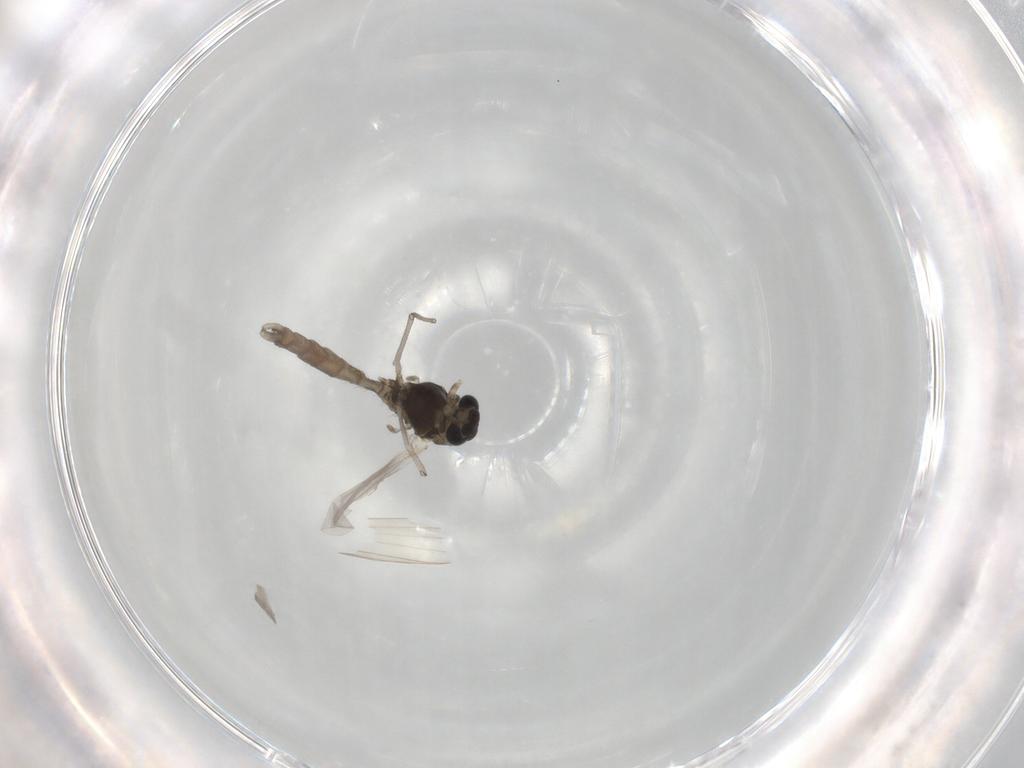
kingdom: Animalia
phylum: Arthropoda
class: Insecta
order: Diptera
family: Chironomidae
